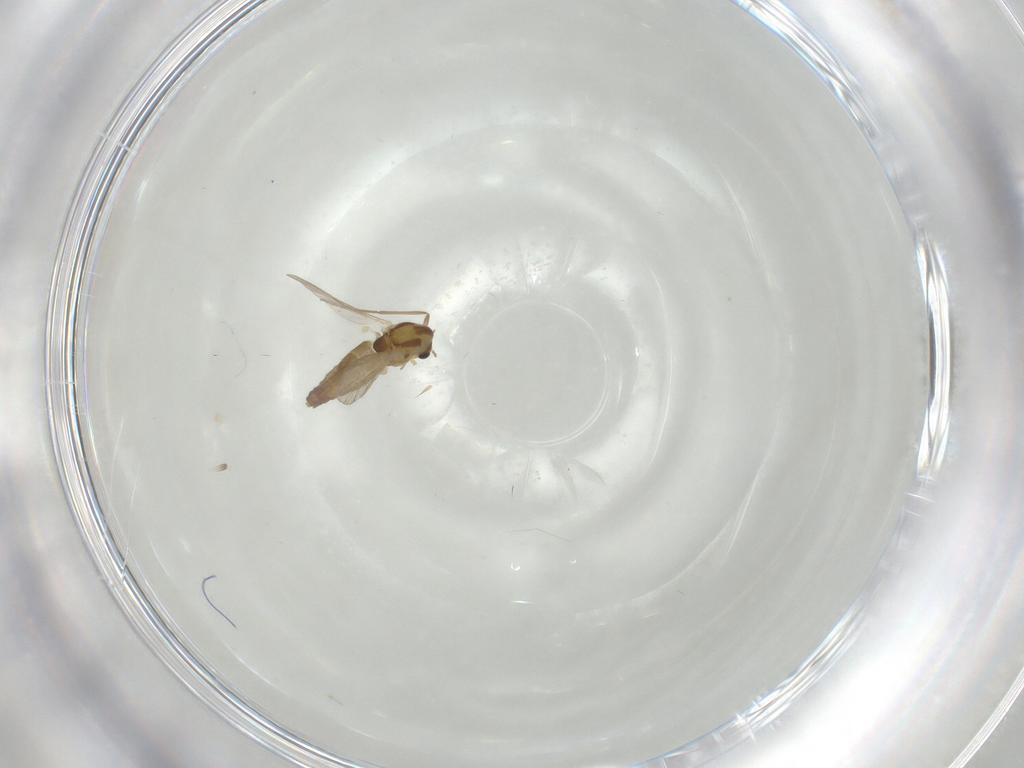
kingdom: Animalia
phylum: Arthropoda
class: Insecta
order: Diptera
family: Chironomidae
